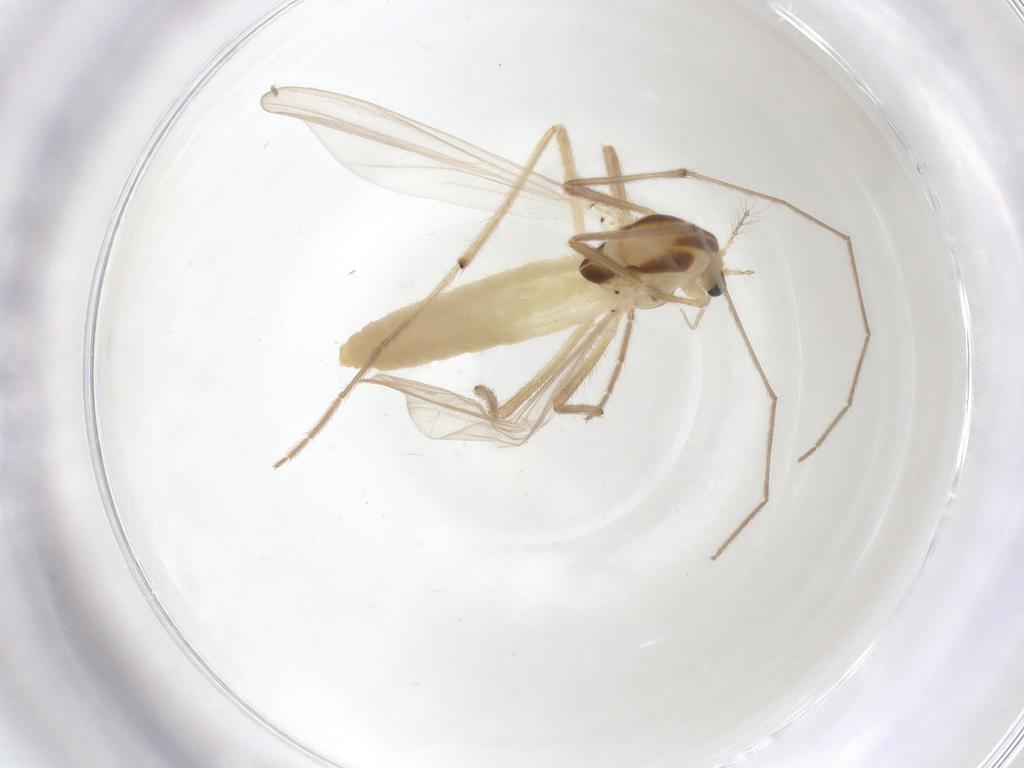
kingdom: Animalia
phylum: Arthropoda
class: Insecta
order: Diptera
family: Chironomidae
